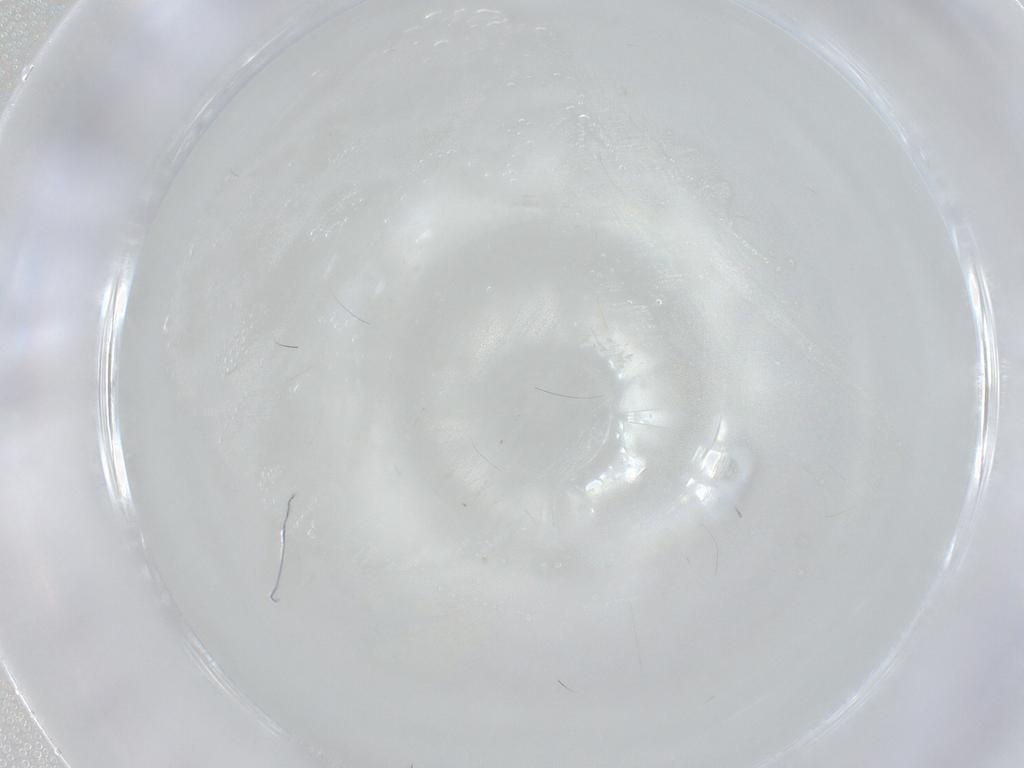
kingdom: Animalia
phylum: Arthropoda
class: Insecta
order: Diptera
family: Sciaridae
